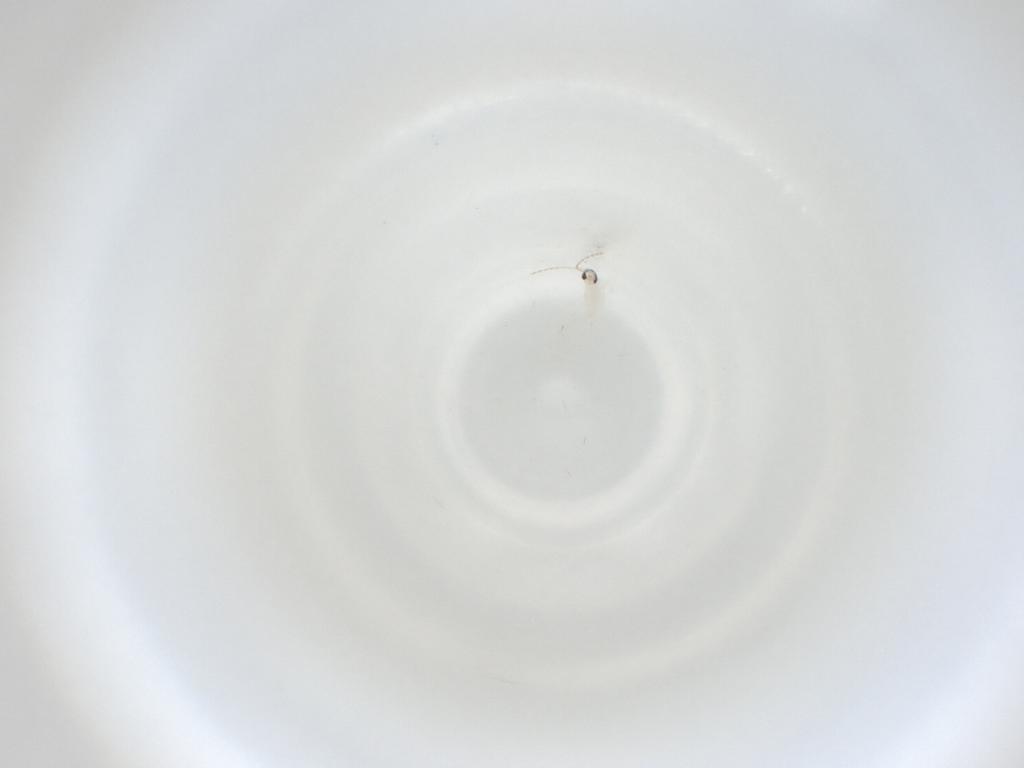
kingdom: Animalia
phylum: Arthropoda
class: Insecta
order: Diptera
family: Cecidomyiidae
